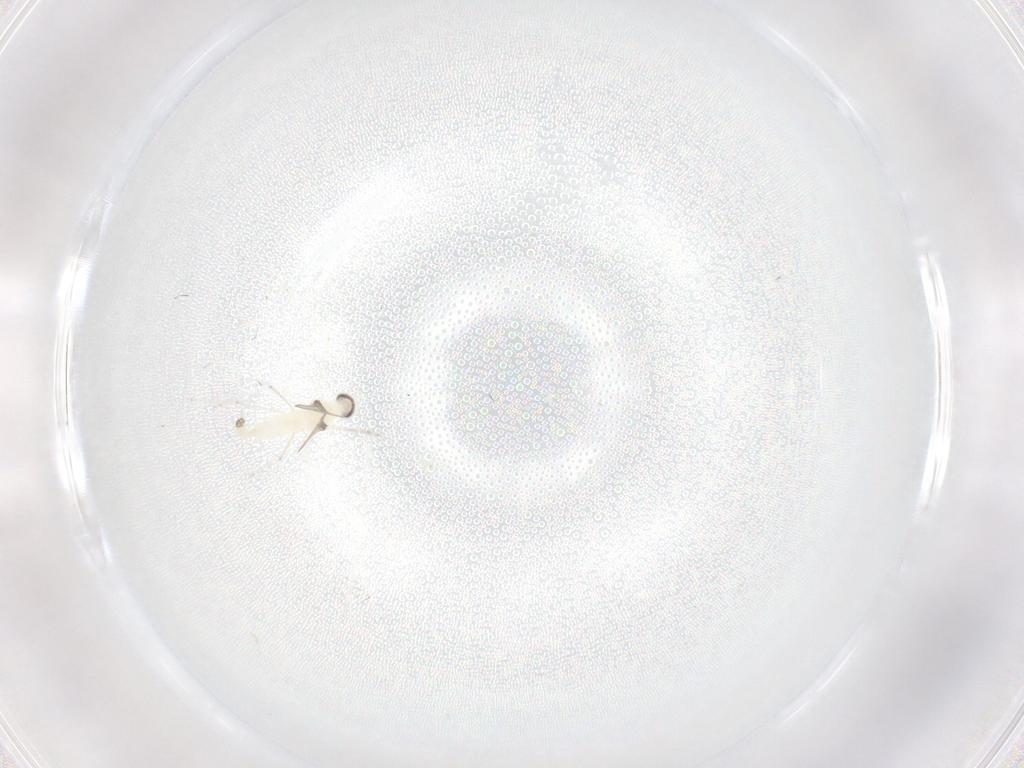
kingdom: Animalia
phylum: Arthropoda
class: Insecta
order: Diptera
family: Cecidomyiidae
